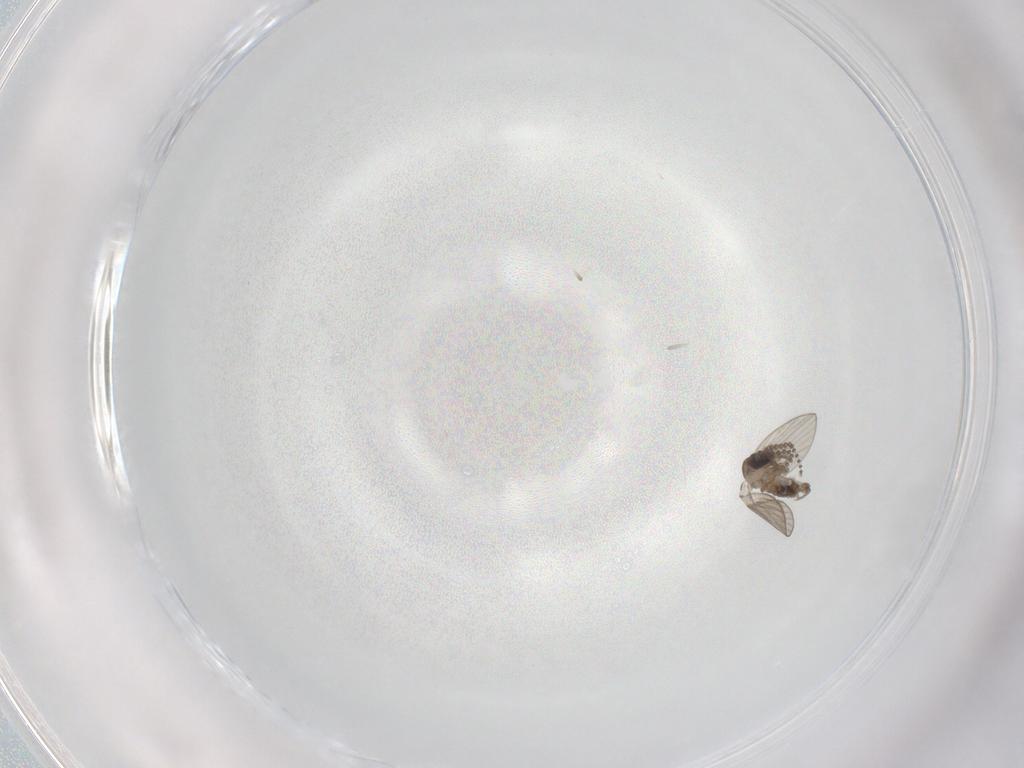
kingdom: Animalia
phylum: Arthropoda
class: Insecta
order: Diptera
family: Psychodidae
